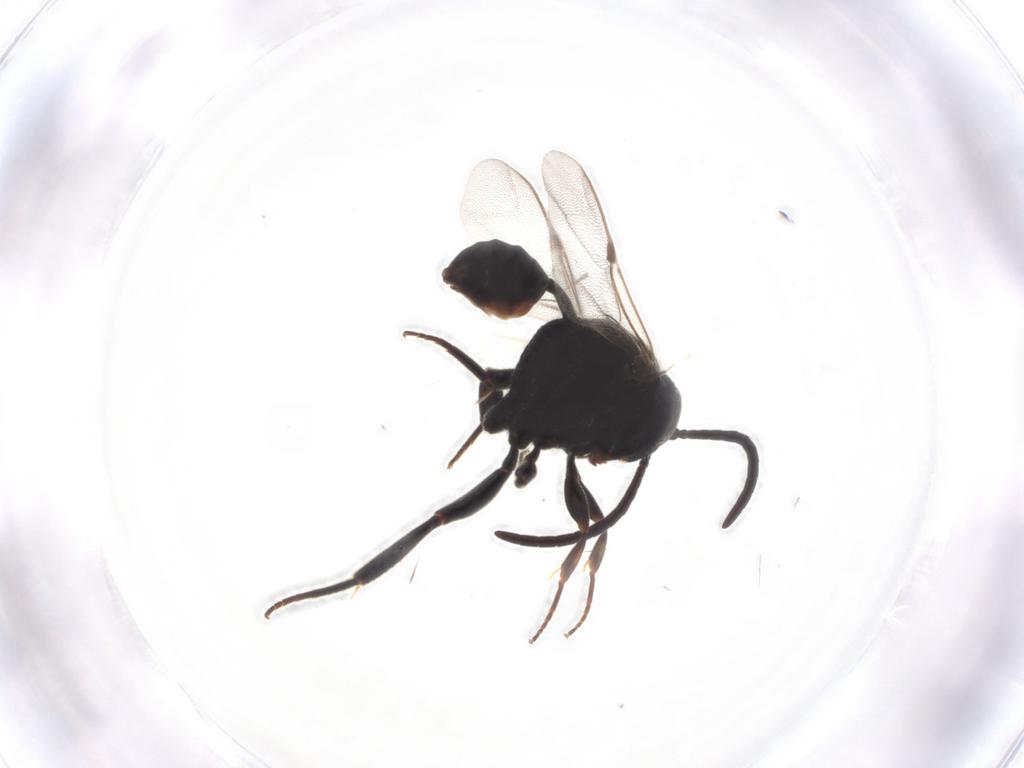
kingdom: Animalia
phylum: Arthropoda
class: Insecta
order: Hymenoptera
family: Evaniidae
